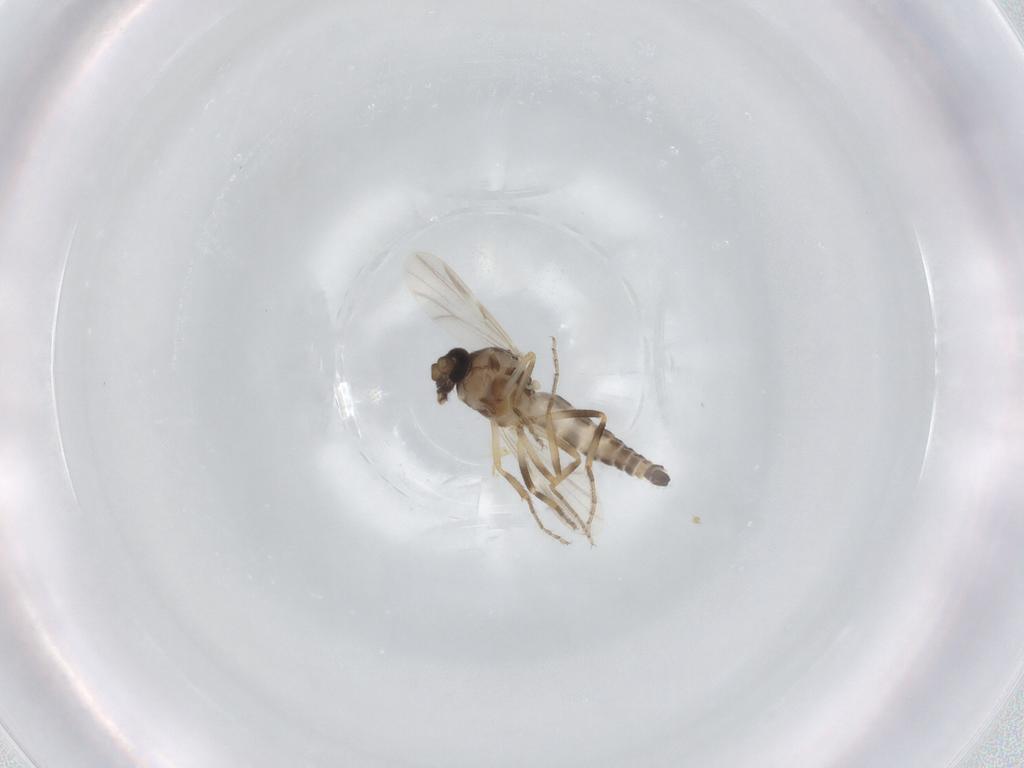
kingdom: Animalia
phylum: Arthropoda
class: Insecta
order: Diptera
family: Ceratopogonidae
